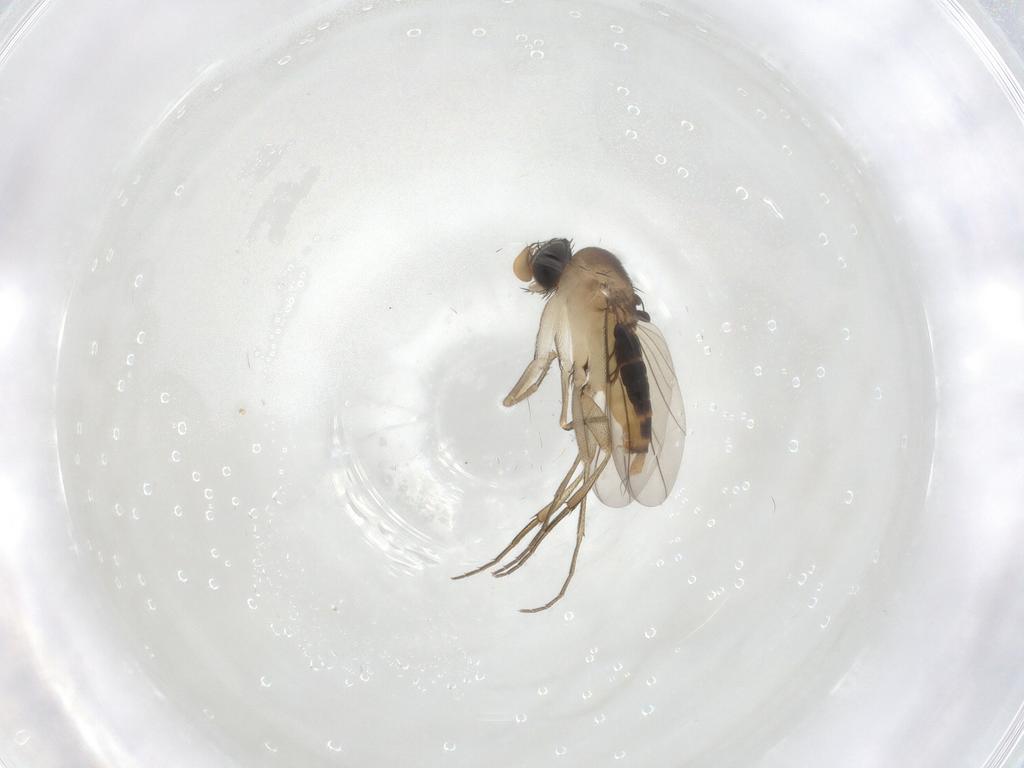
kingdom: Animalia
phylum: Arthropoda
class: Insecta
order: Diptera
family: Phoridae
